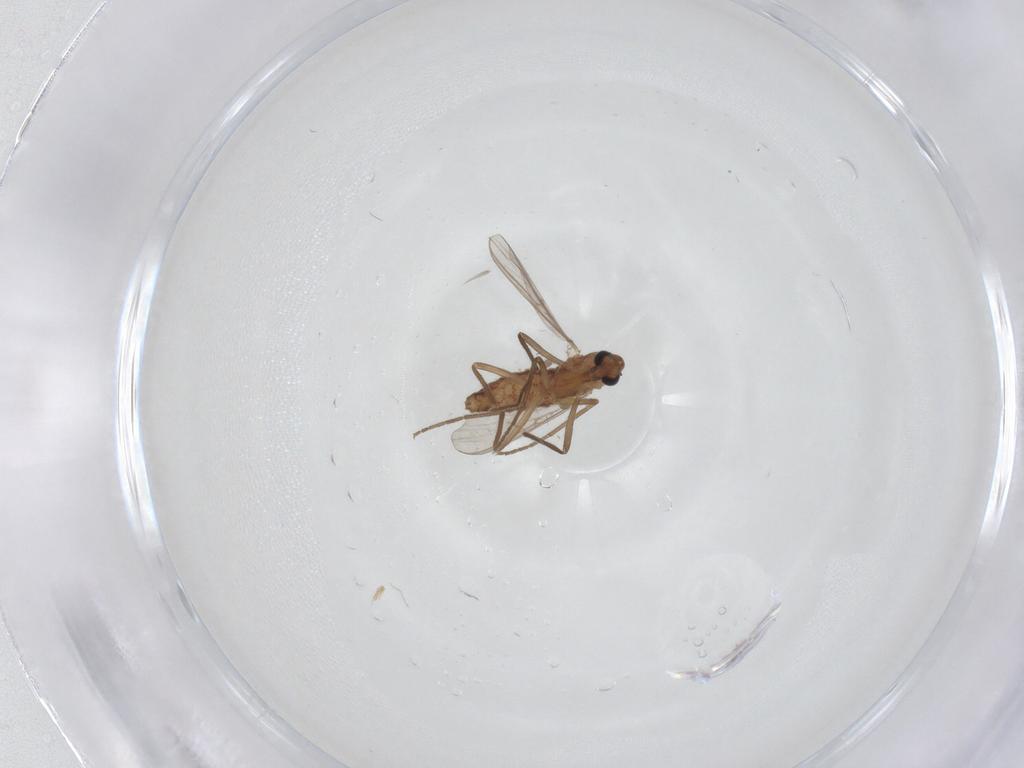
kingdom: Animalia
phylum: Arthropoda
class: Insecta
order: Diptera
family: Chironomidae
